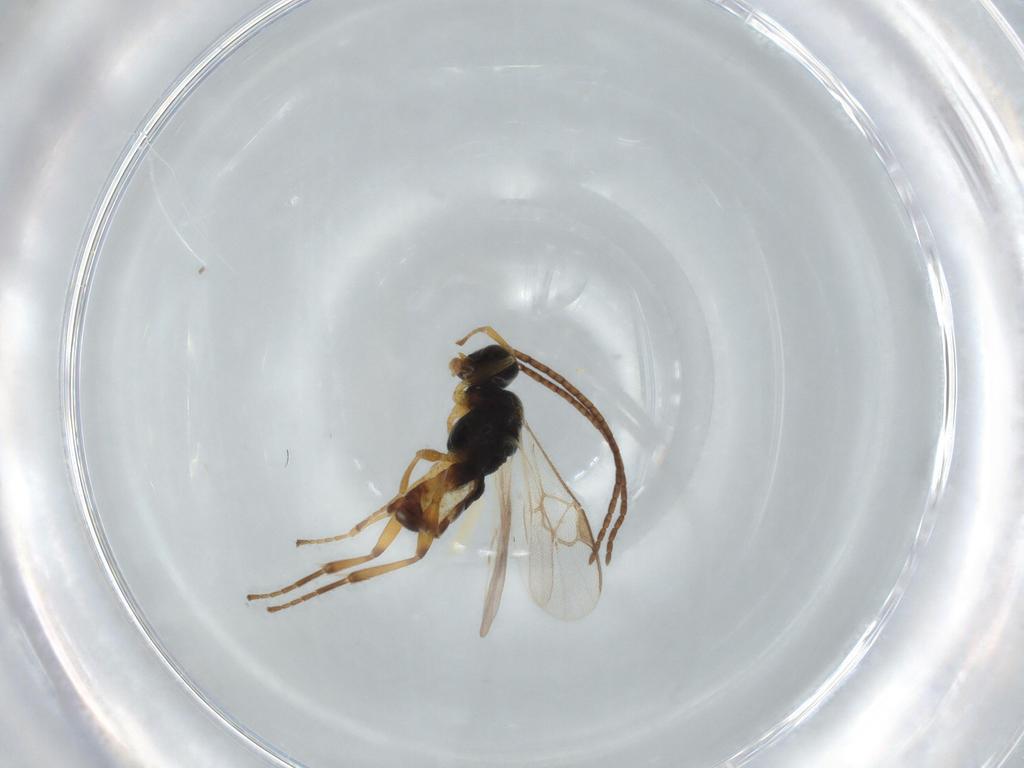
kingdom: Animalia
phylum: Arthropoda
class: Insecta
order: Hymenoptera
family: Braconidae
